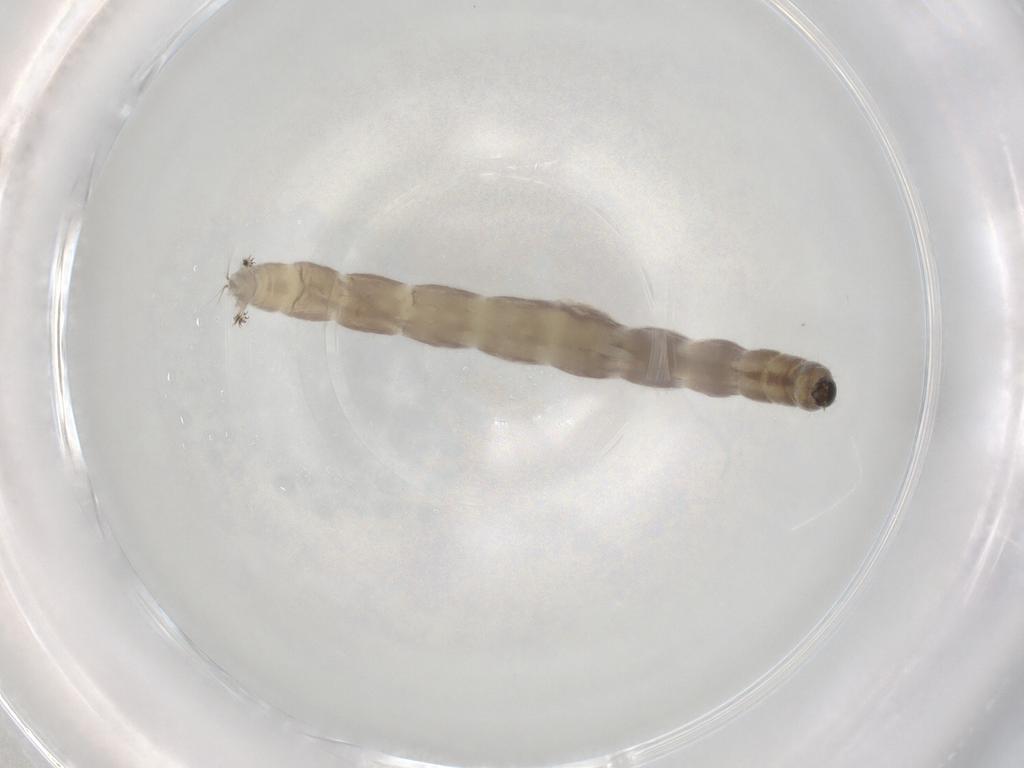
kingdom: Animalia
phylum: Arthropoda
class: Insecta
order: Diptera
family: Chironomidae
